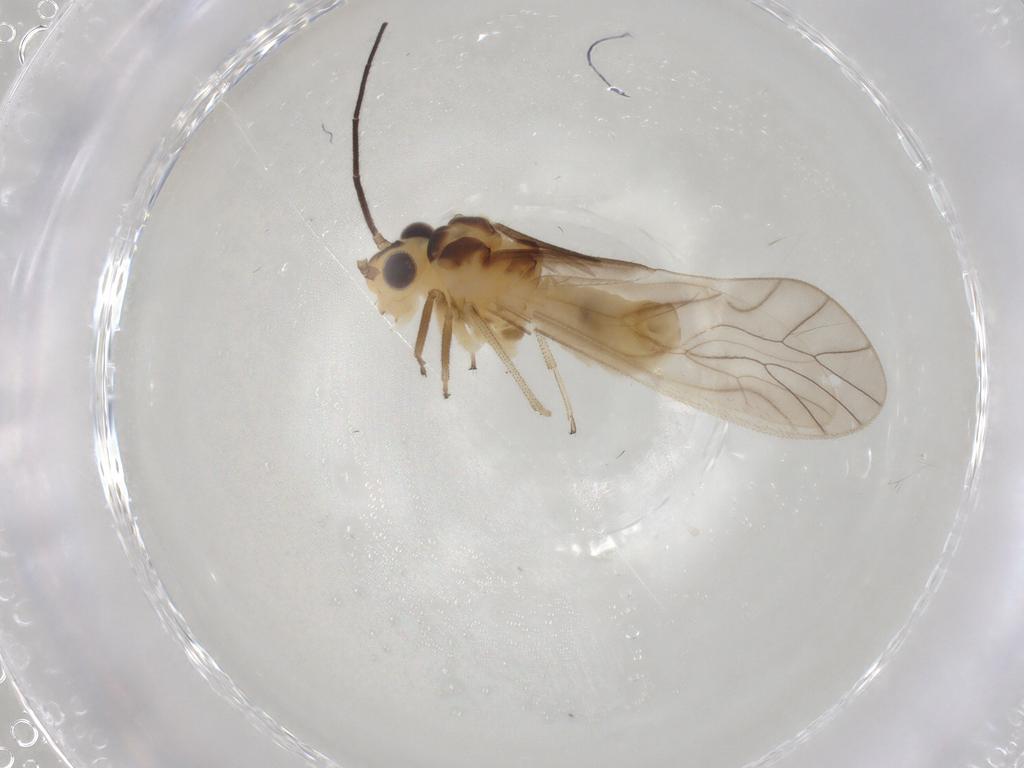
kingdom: Animalia
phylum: Arthropoda
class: Insecta
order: Psocodea
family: Caeciliusidae
